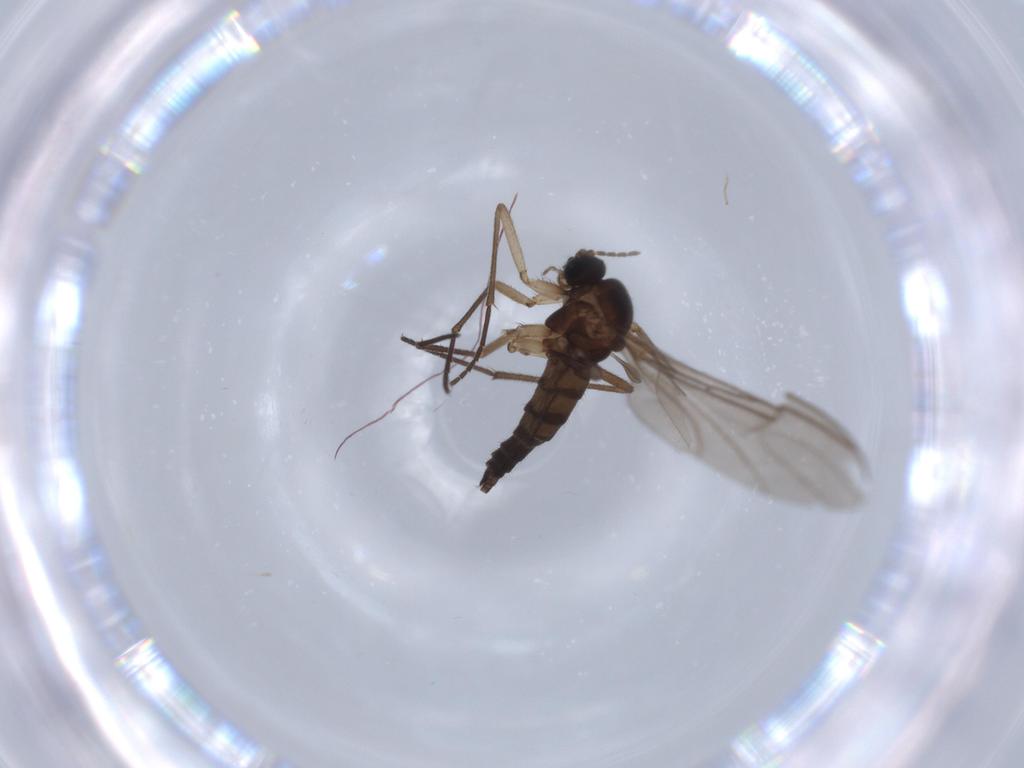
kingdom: Animalia
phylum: Arthropoda
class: Insecta
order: Diptera
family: Sciaridae
